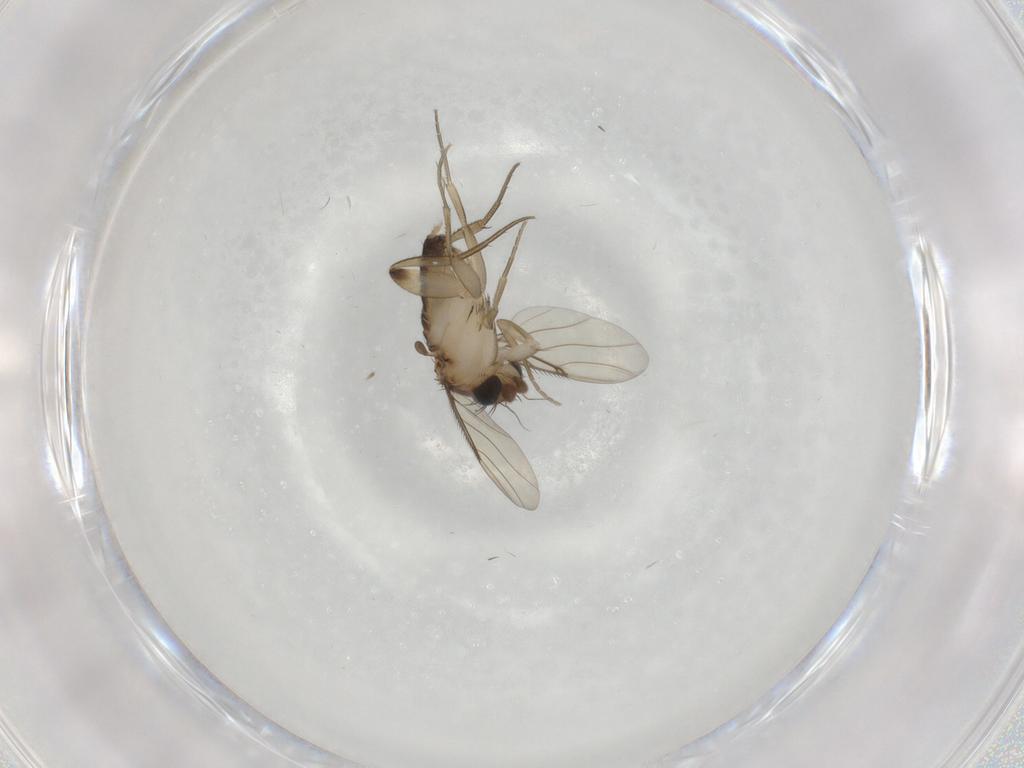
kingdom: Animalia
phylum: Arthropoda
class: Insecta
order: Diptera
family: Phoridae
